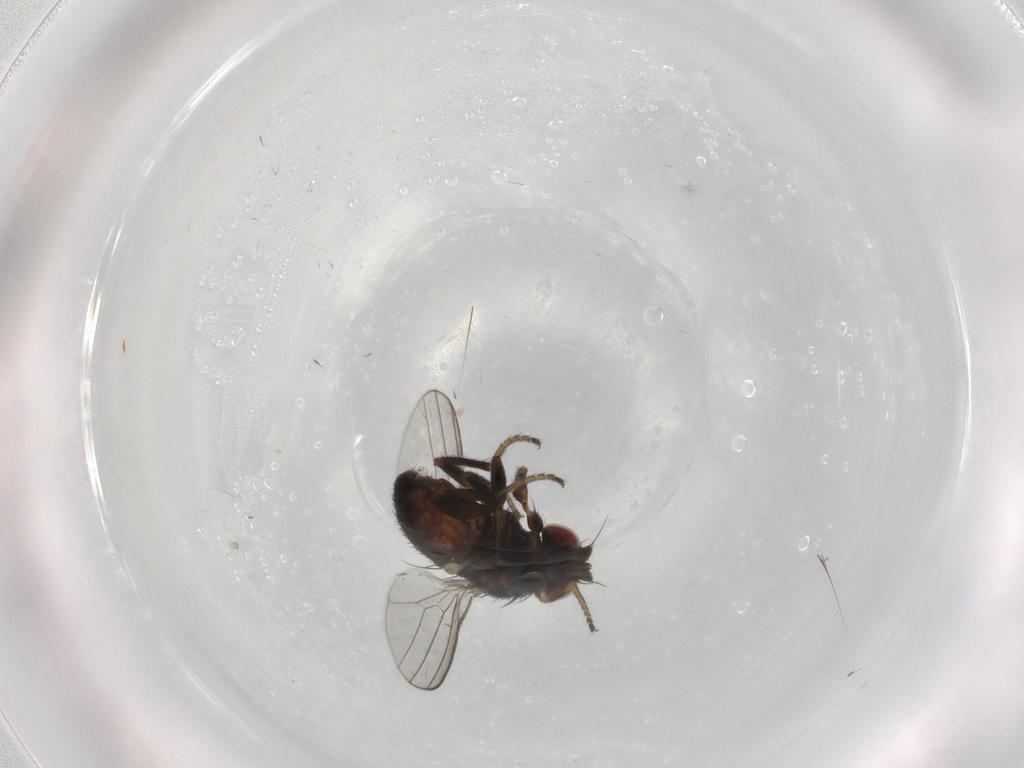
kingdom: Animalia
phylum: Arthropoda
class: Insecta
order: Diptera
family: Milichiidae
